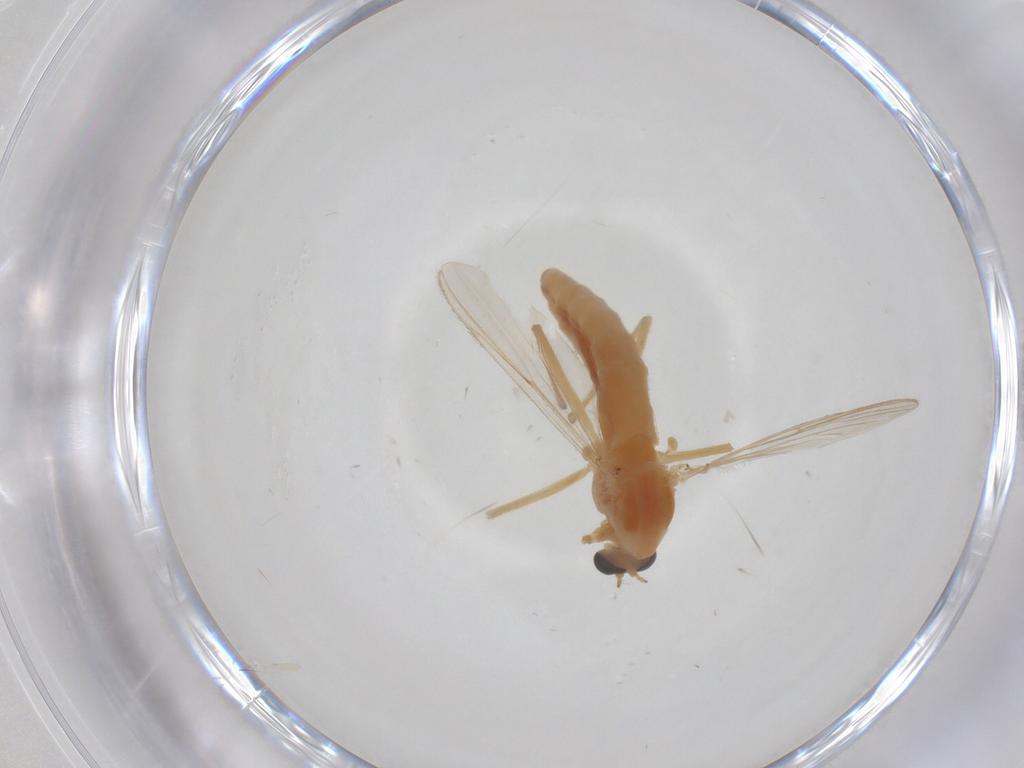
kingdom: Animalia
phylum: Arthropoda
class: Insecta
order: Diptera
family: Chironomidae
